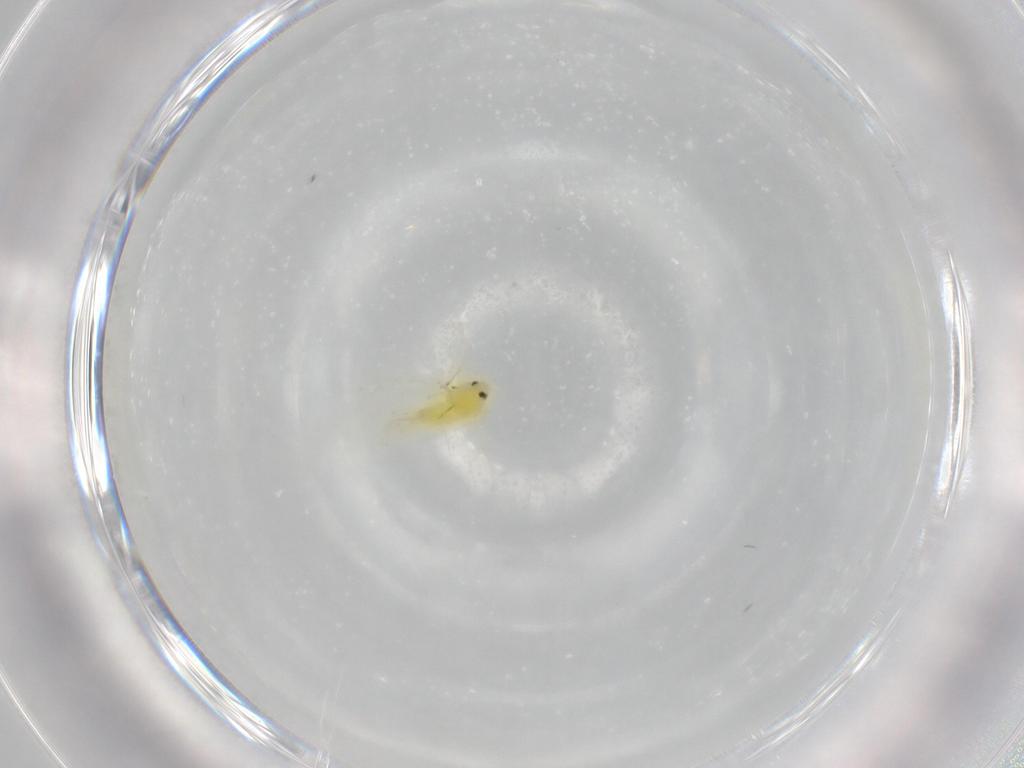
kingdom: Animalia
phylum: Arthropoda
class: Insecta
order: Hemiptera
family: Aleyrodidae
